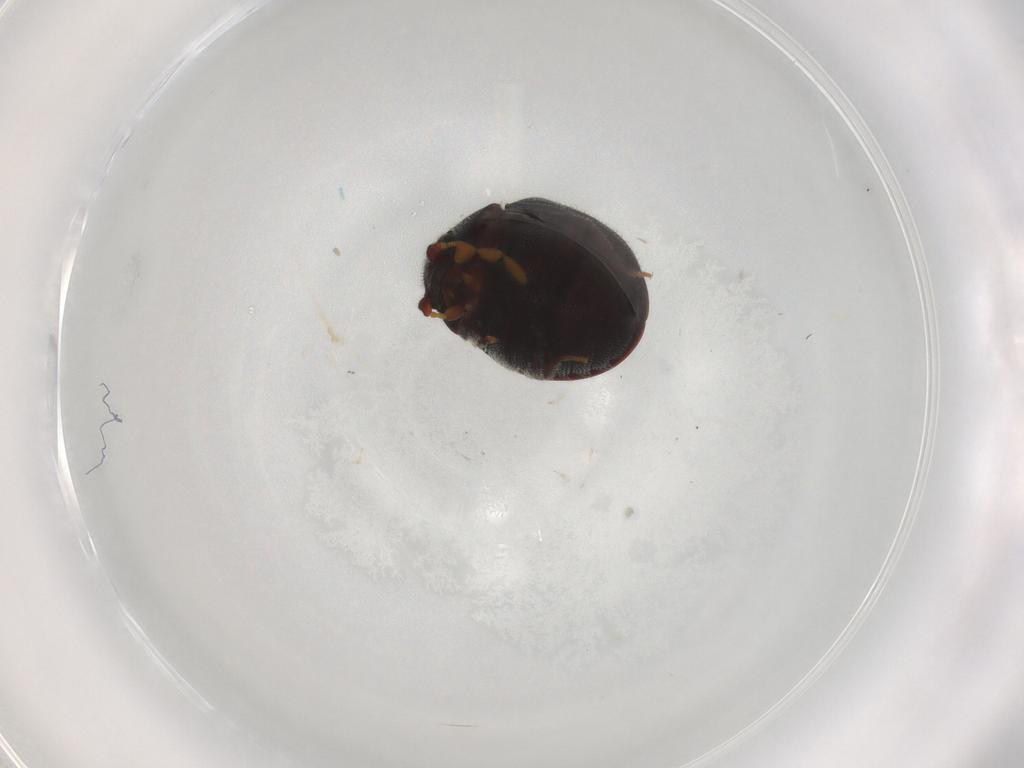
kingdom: Animalia
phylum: Arthropoda
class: Insecta
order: Coleoptera
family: Ptinidae
